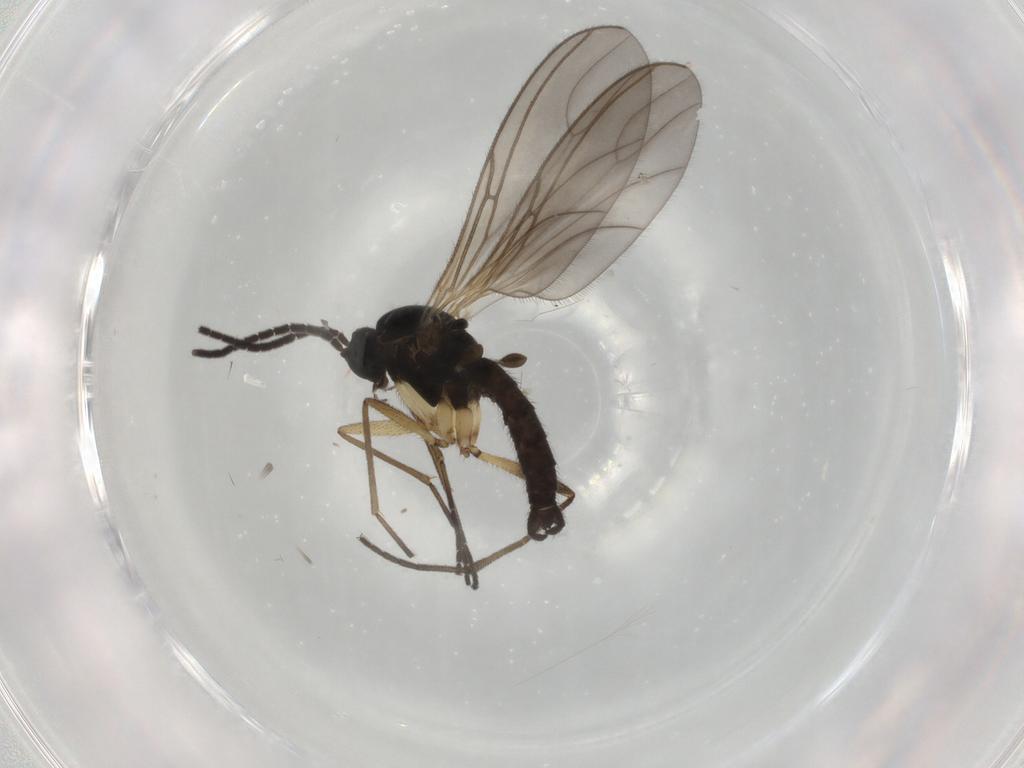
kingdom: Animalia
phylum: Arthropoda
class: Insecta
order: Diptera
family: Sciaridae
